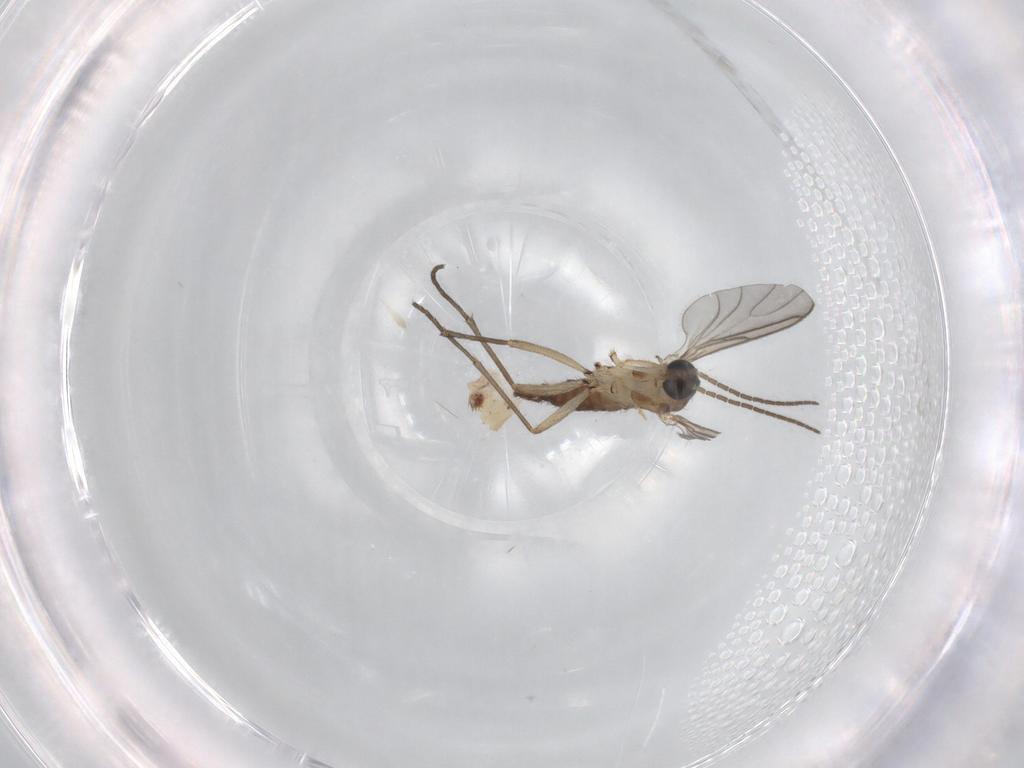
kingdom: Animalia
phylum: Arthropoda
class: Insecta
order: Diptera
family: Sciaridae
